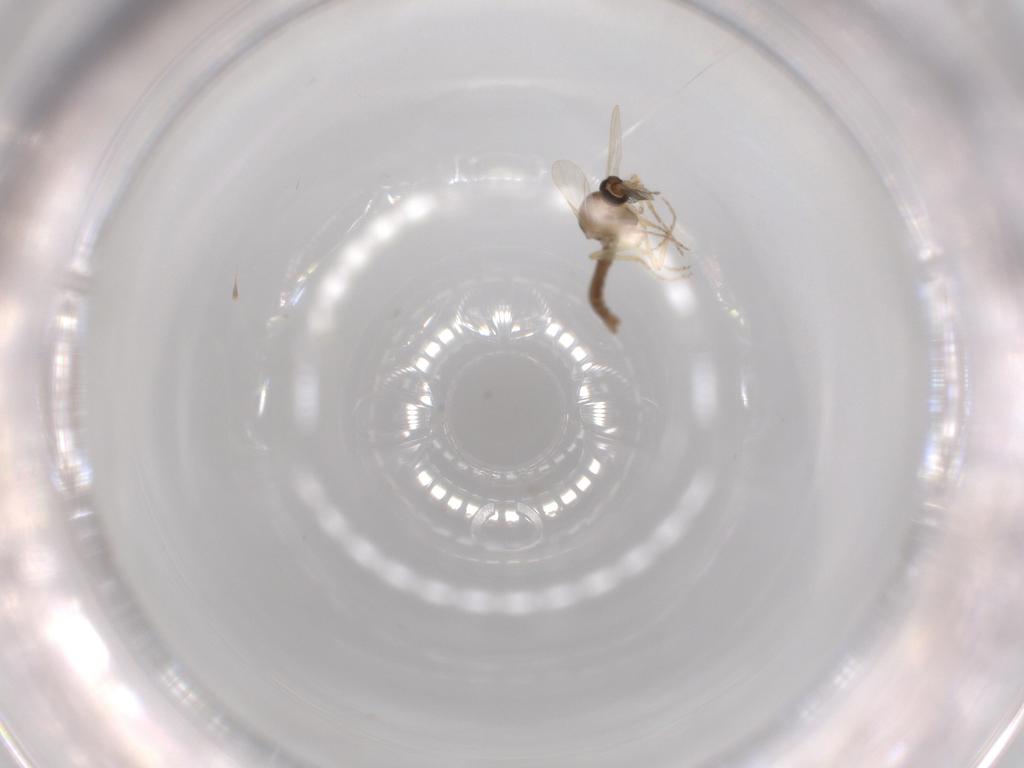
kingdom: Animalia
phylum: Arthropoda
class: Insecta
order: Diptera
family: Ceratopogonidae
